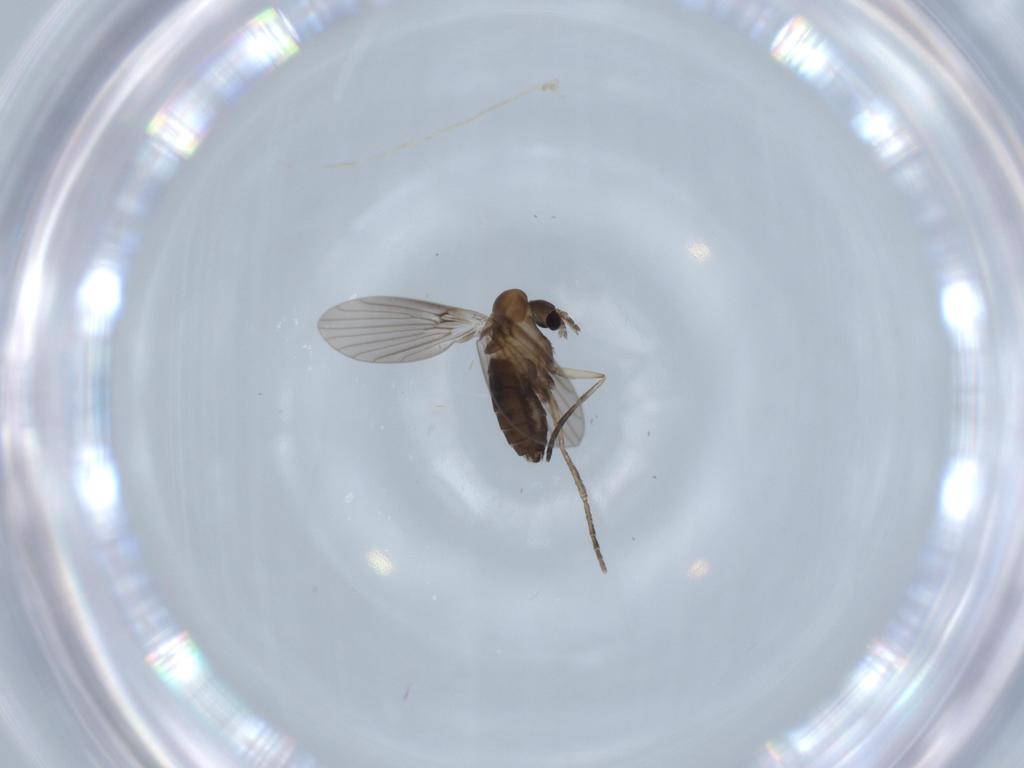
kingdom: Animalia
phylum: Arthropoda
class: Insecta
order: Diptera
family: Psychodidae
